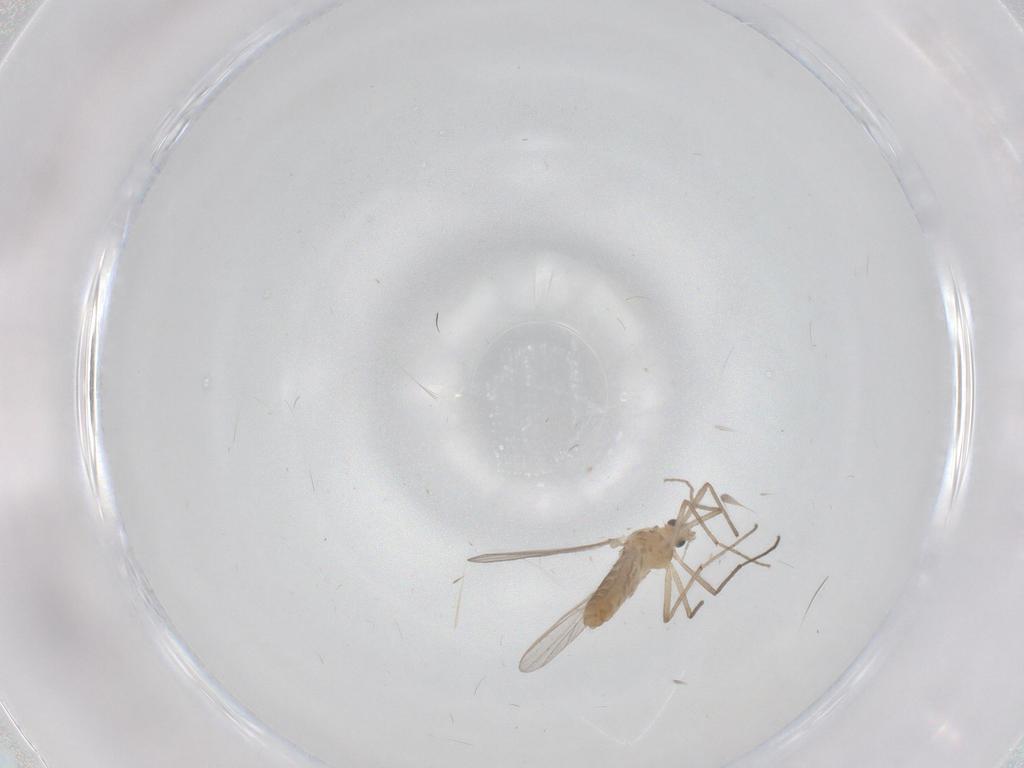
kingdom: Animalia
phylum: Arthropoda
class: Insecta
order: Diptera
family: Chironomidae
